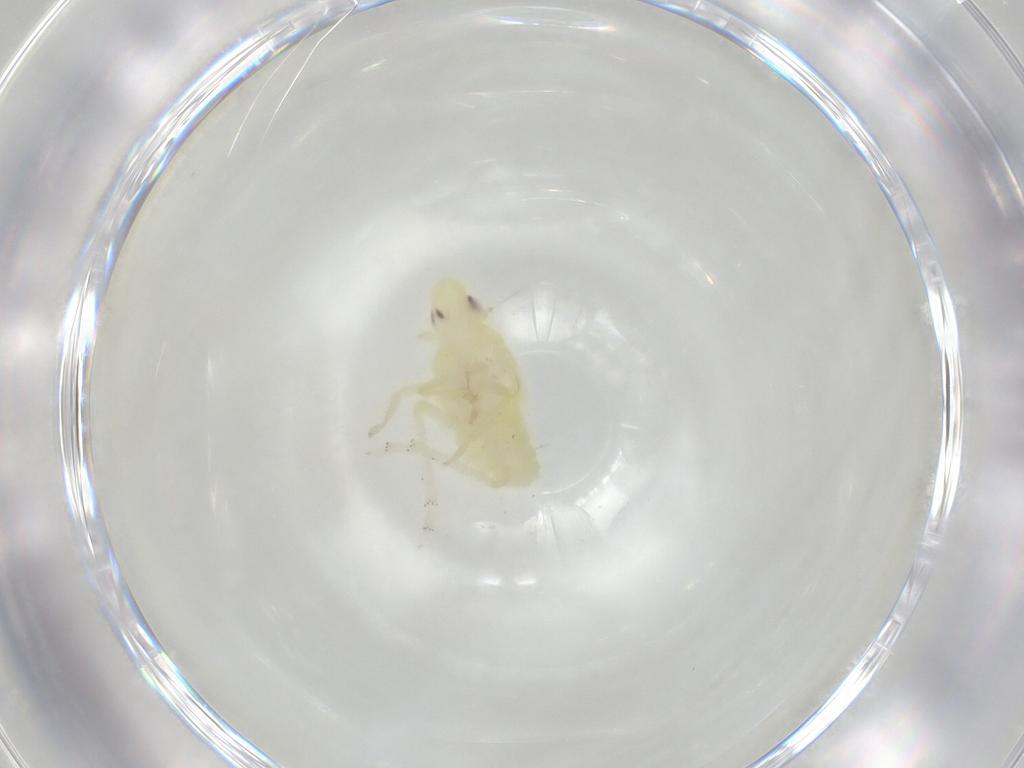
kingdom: Animalia
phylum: Arthropoda
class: Insecta
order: Hemiptera
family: Tropiduchidae
